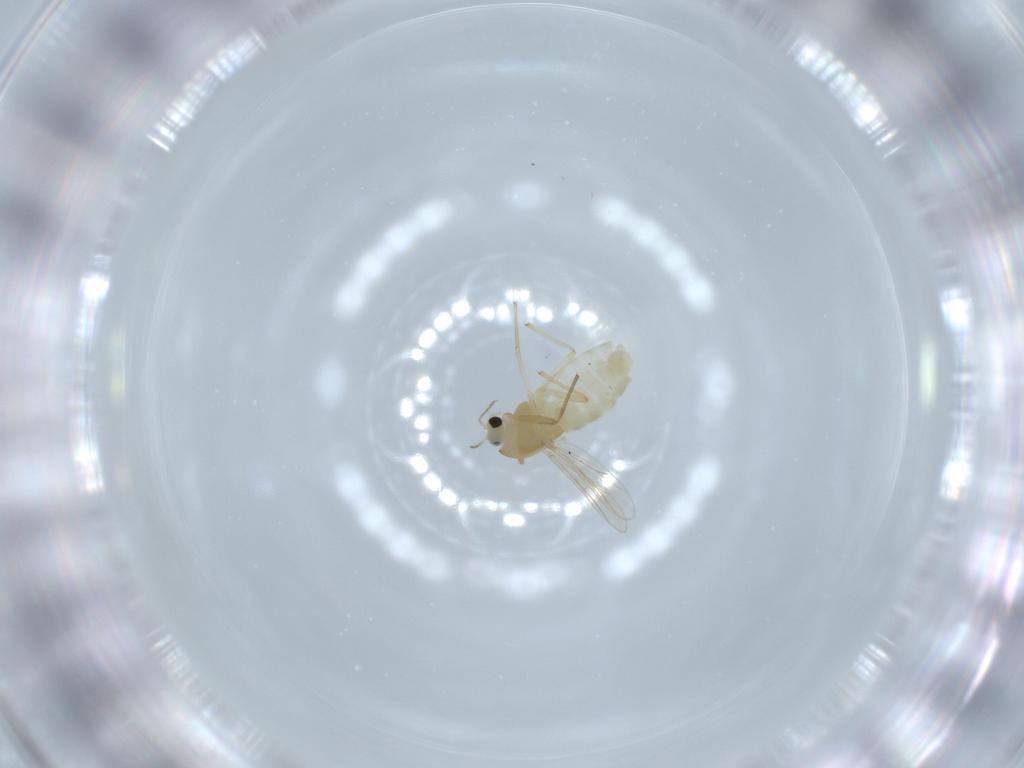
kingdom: Animalia
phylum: Arthropoda
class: Insecta
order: Diptera
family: Chironomidae
